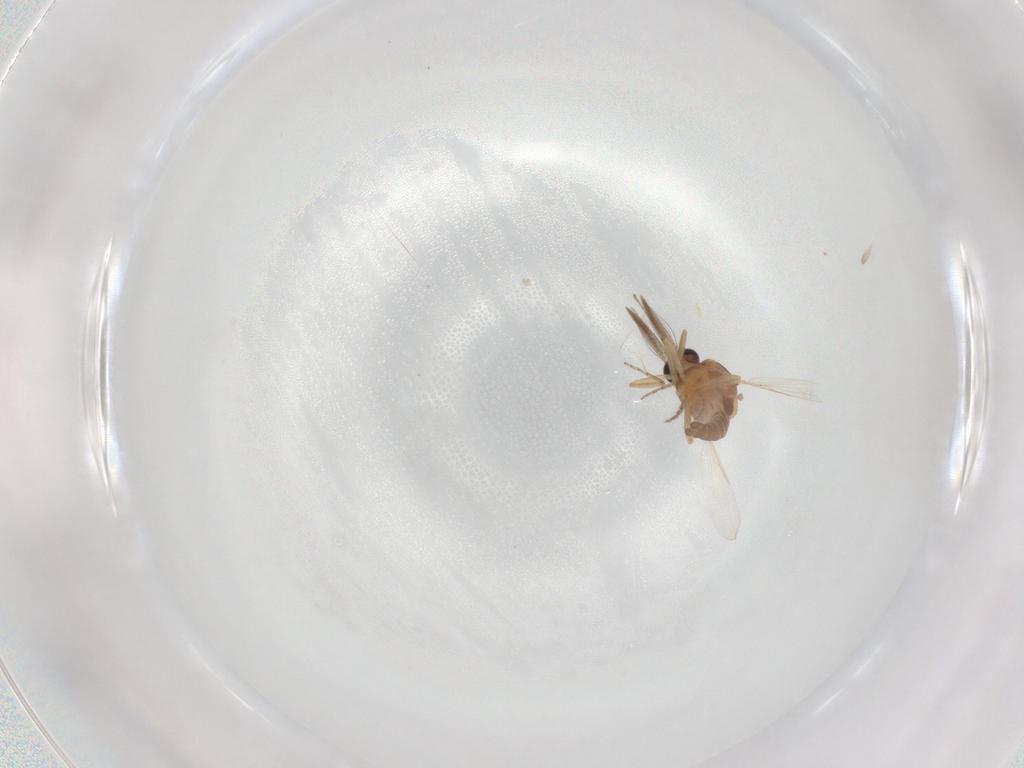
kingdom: Animalia
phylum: Arthropoda
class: Insecta
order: Diptera
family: Ceratopogonidae
